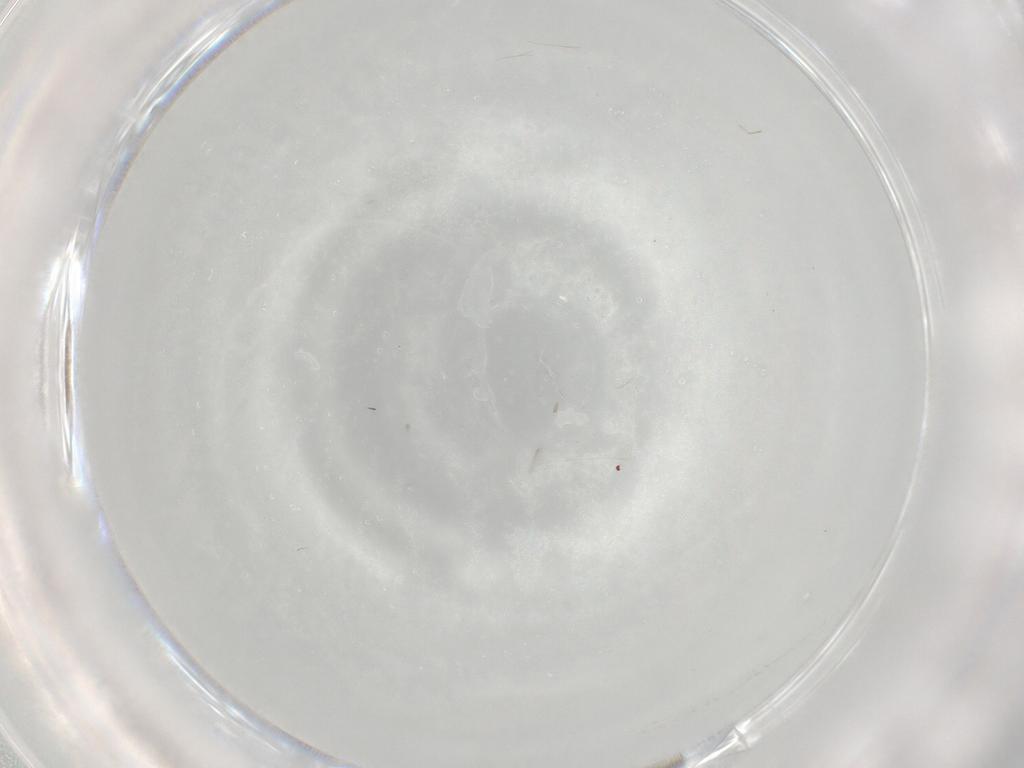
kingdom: Animalia
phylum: Arthropoda
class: Insecta
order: Hymenoptera
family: Mymaridae
